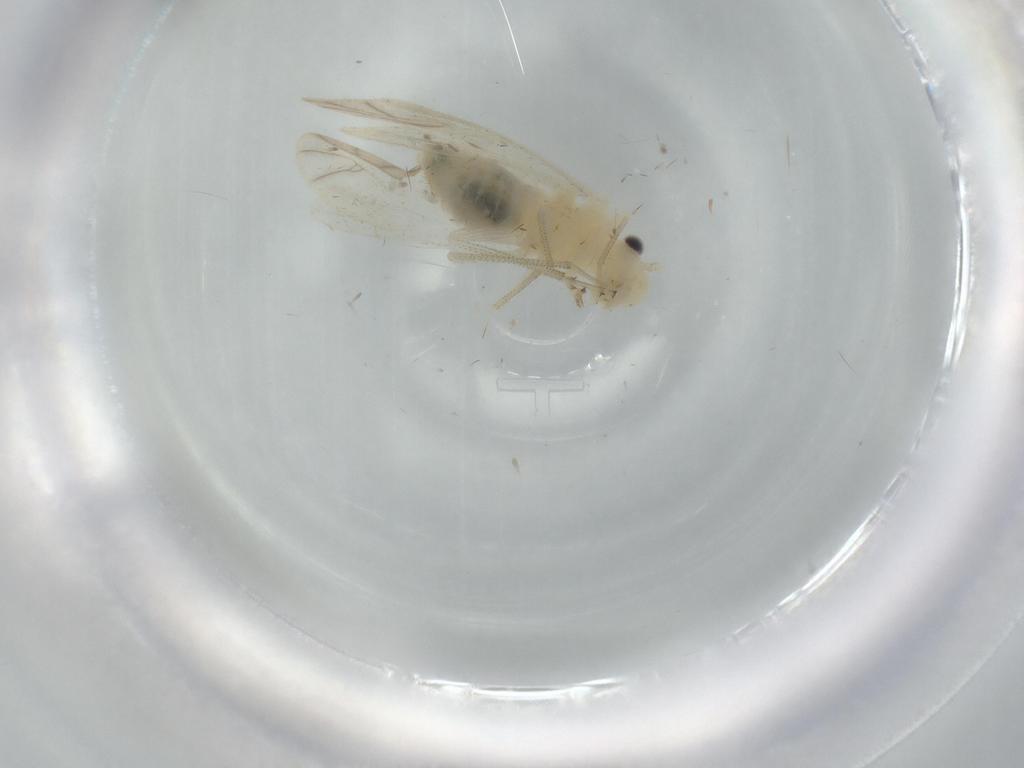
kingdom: Animalia
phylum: Arthropoda
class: Insecta
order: Psocodea
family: Caeciliusidae
